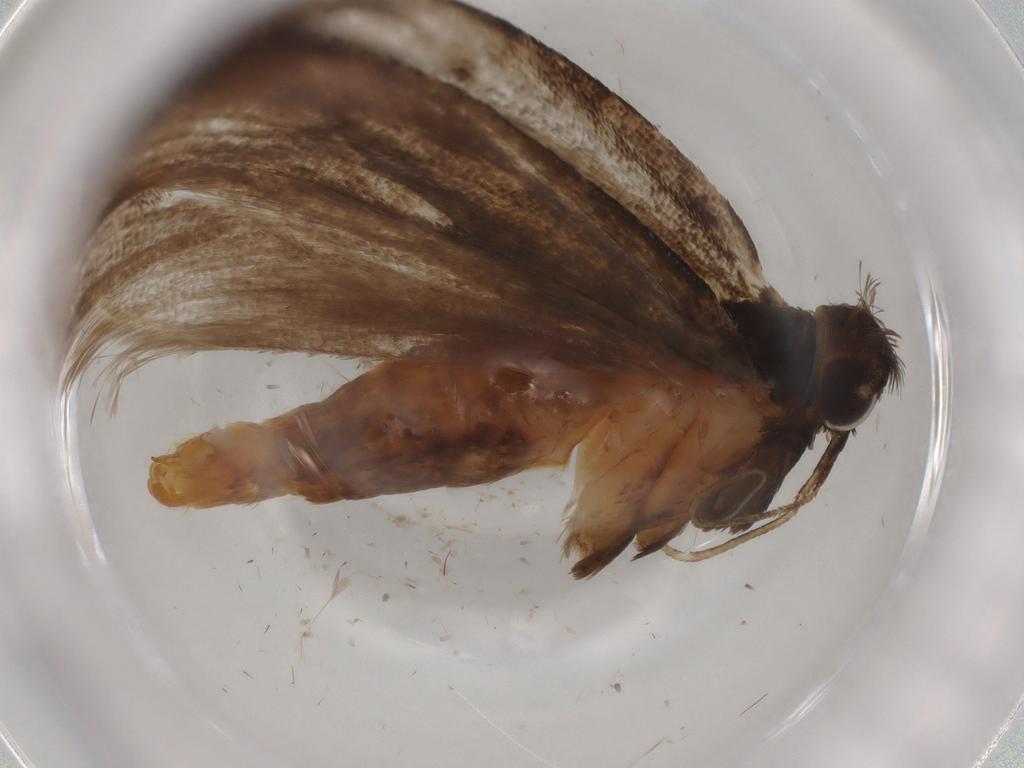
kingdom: Animalia
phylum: Arthropoda
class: Insecta
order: Lepidoptera
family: Lecithoceridae
